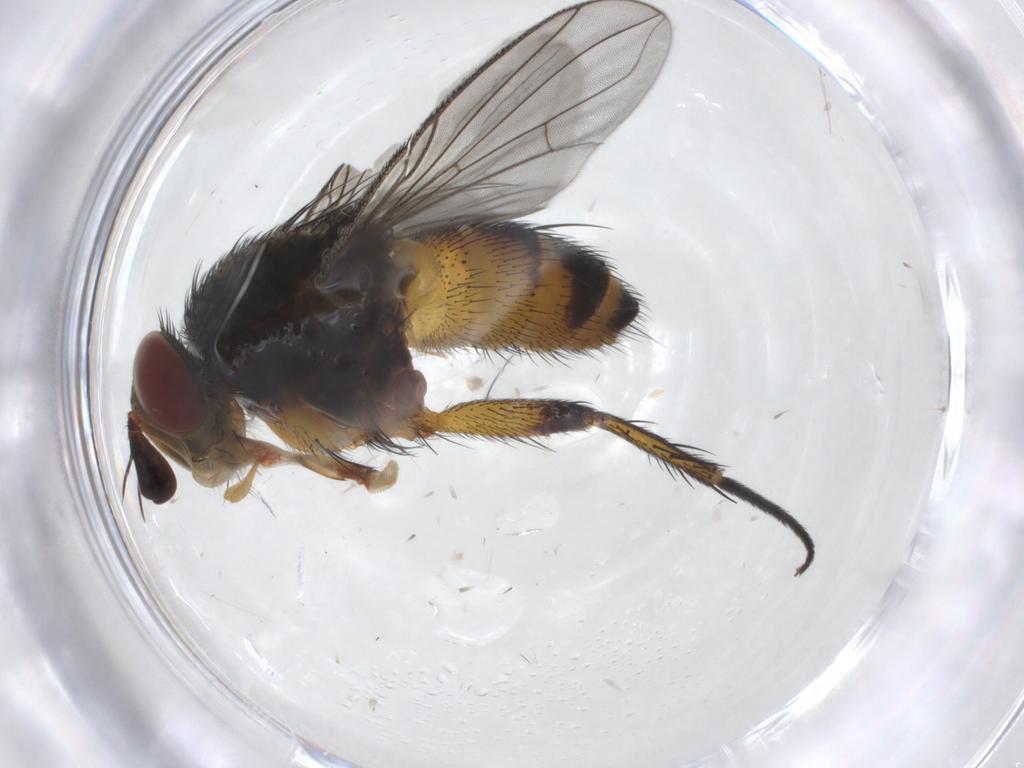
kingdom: Animalia
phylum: Arthropoda
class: Insecta
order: Diptera
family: Tachinidae
